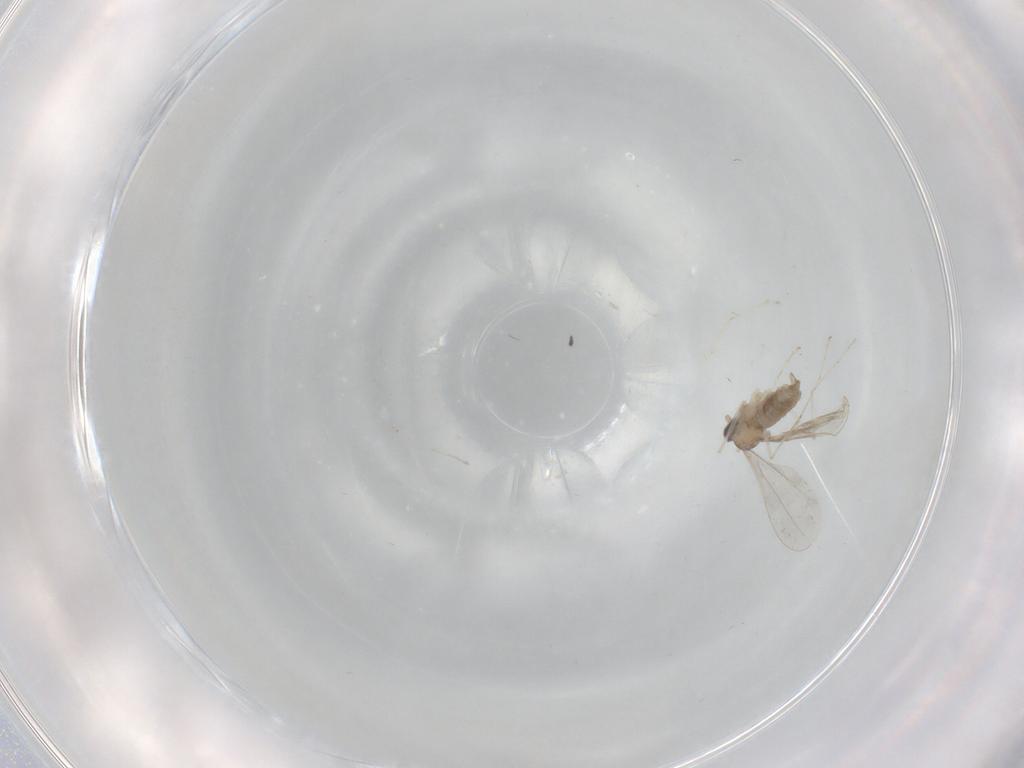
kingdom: Animalia
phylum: Arthropoda
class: Insecta
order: Diptera
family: Cecidomyiidae
